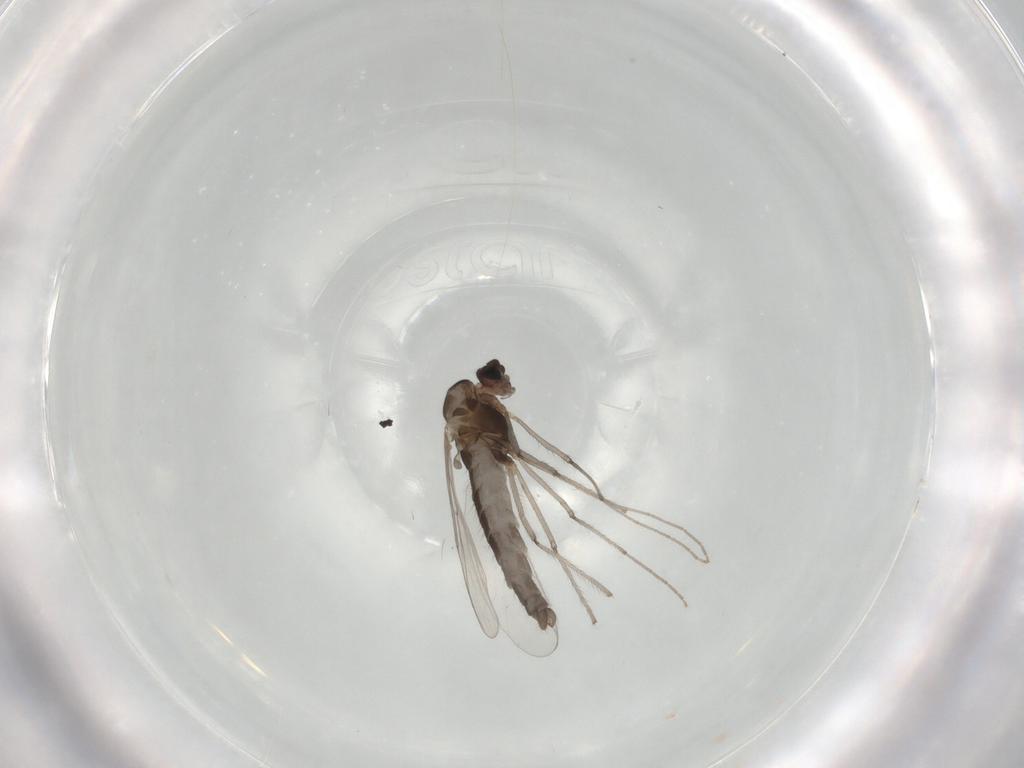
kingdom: Animalia
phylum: Arthropoda
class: Insecta
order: Diptera
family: Chironomidae
